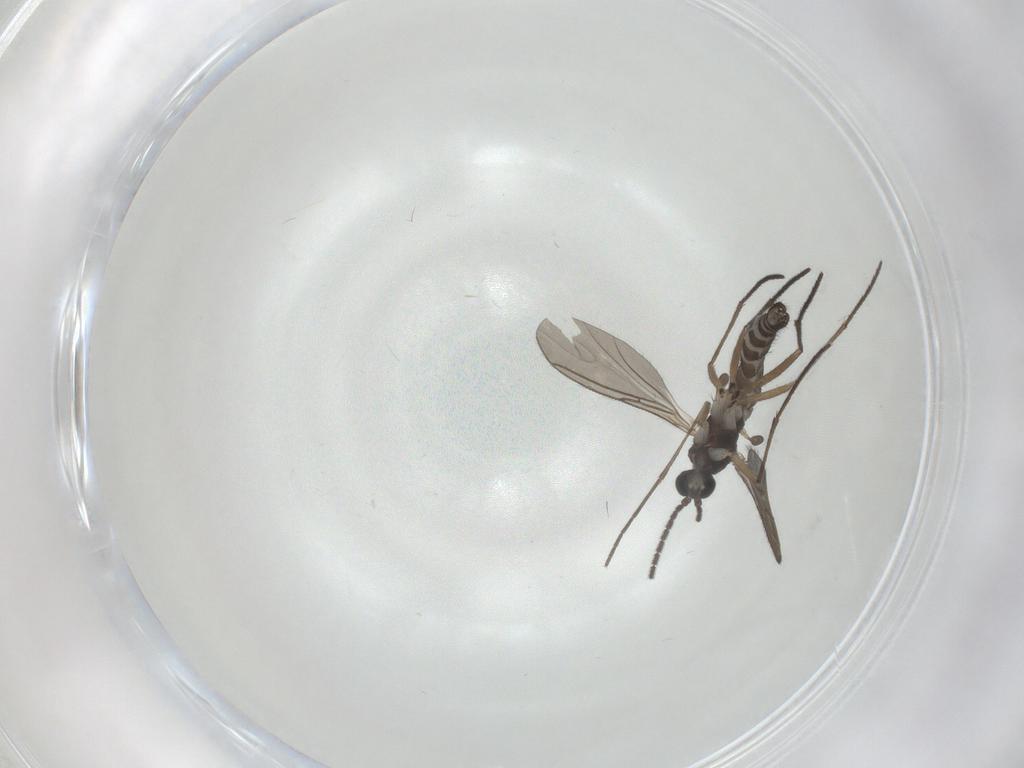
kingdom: Animalia
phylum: Arthropoda
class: Insecta
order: Diptera
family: Sciaridae
